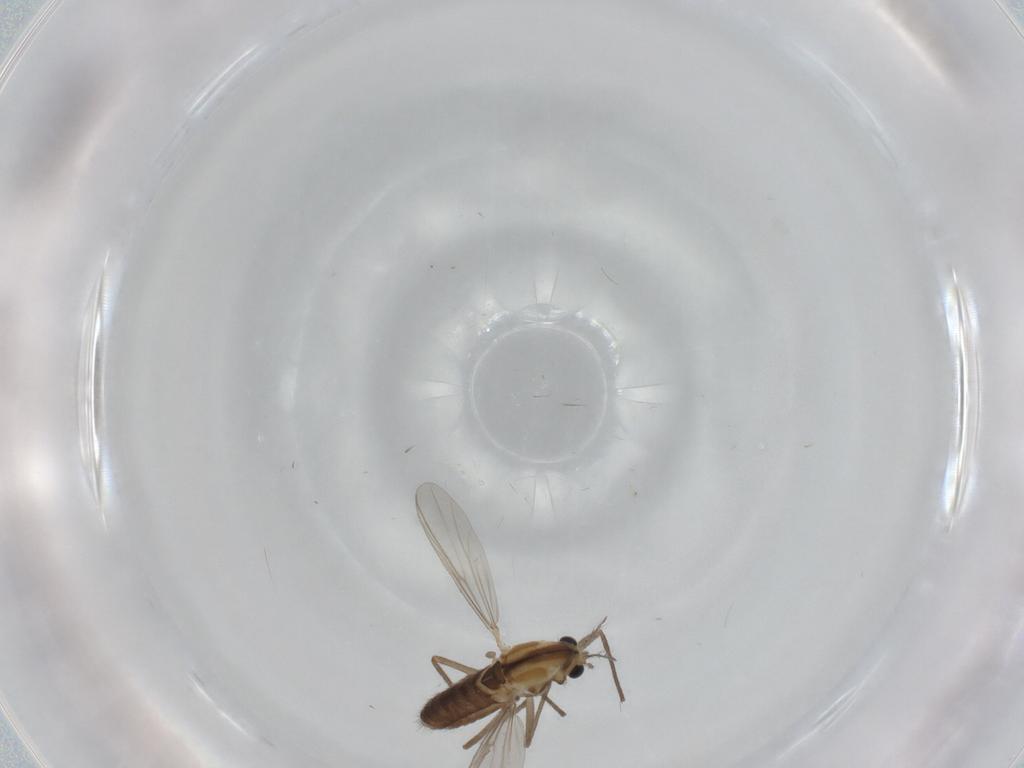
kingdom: Animalia
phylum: Arthropoda
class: Insecta
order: Diptera
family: Chironomidae
